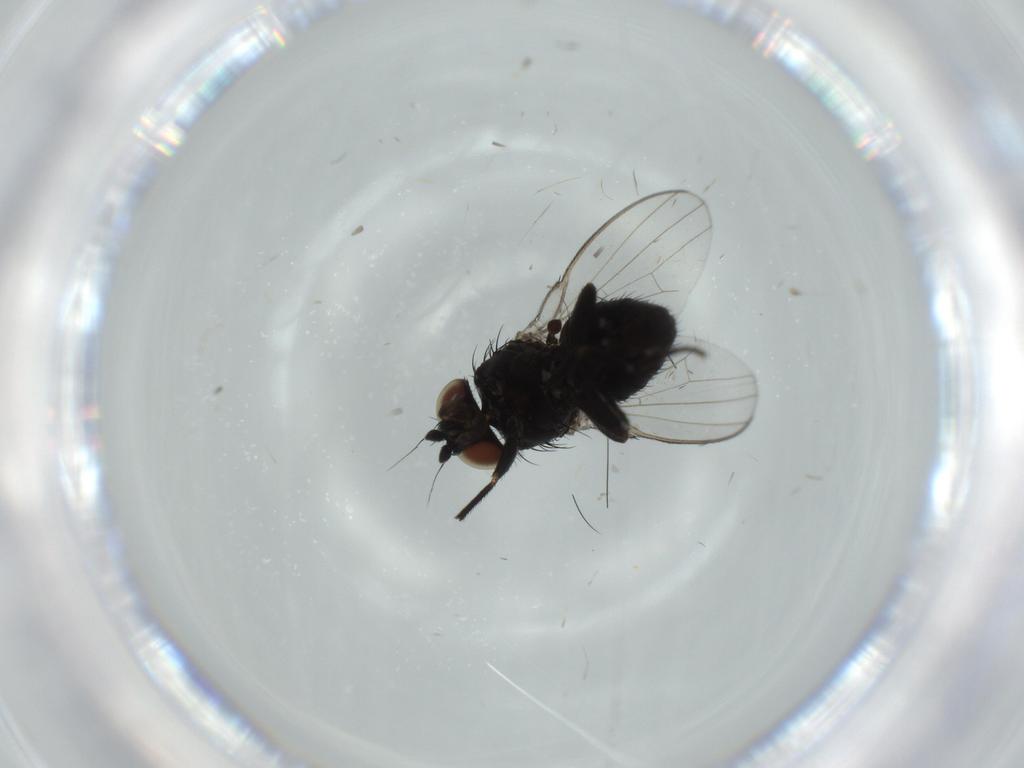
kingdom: Animalia
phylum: Arthropoda
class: Insecta
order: Diptera
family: Milichiidae
